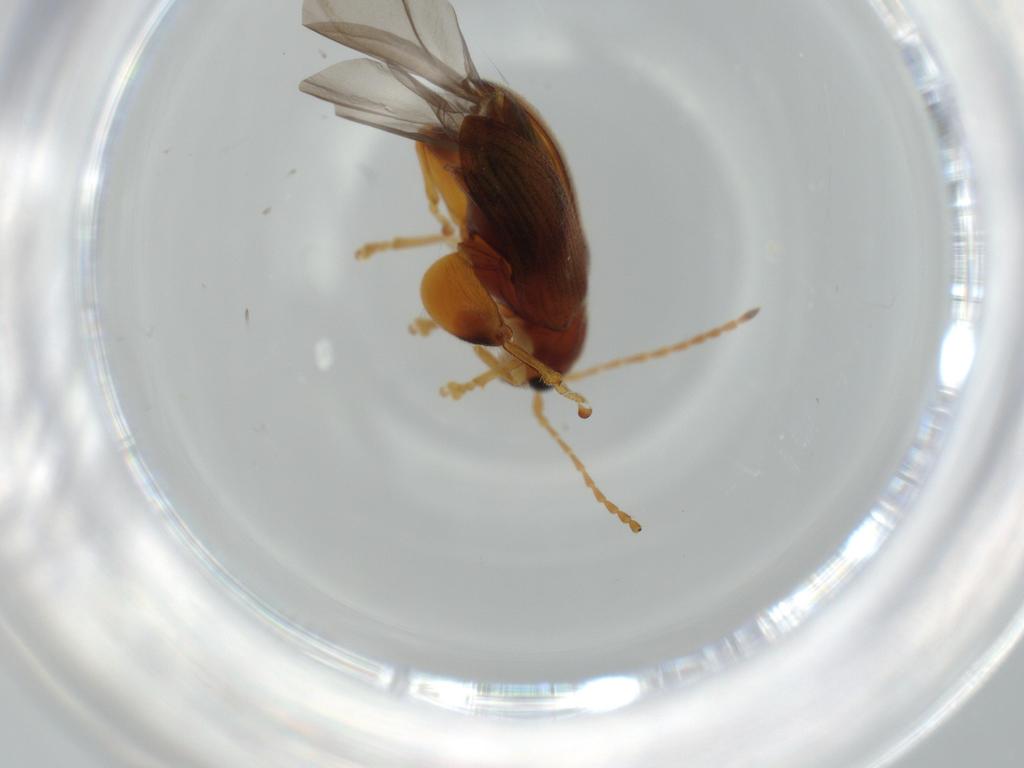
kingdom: Animalia
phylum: Arthropoda
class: Insecta
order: Coleoptera
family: Chrysomelidae
